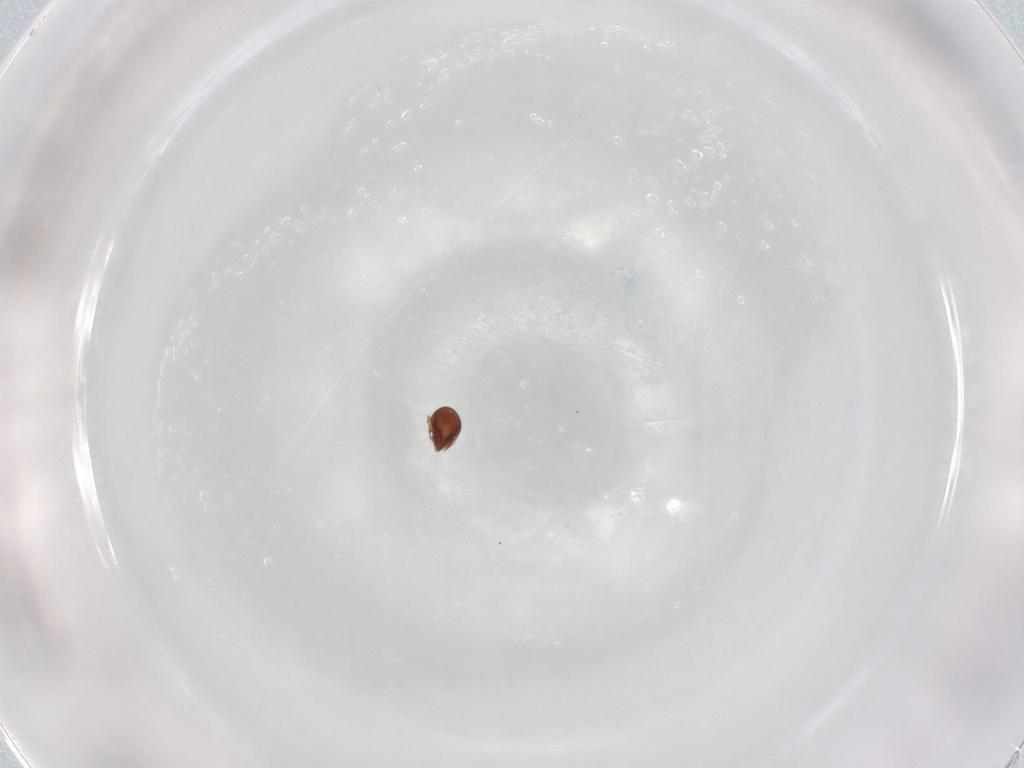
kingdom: Animalia
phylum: Arthropoda
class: Arachnida
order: Sarcoptiformes
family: Ceratozetidae
